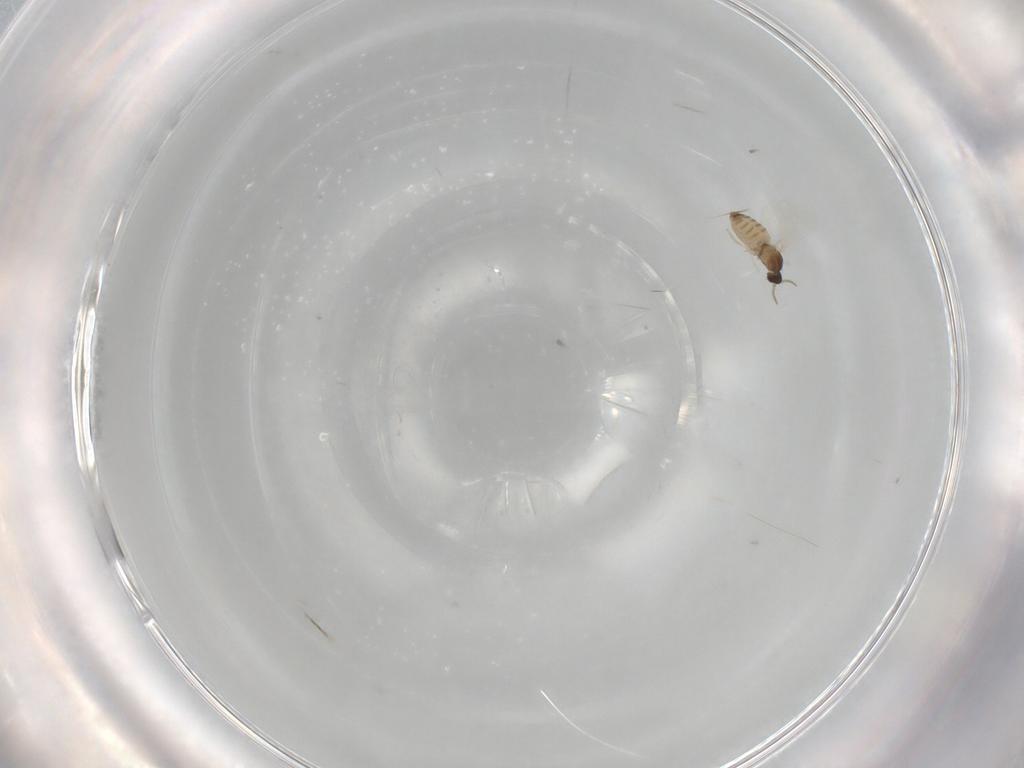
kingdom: Animalia
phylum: Arthropoda
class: Insecta
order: Diptera
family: Cecidomyiidae
